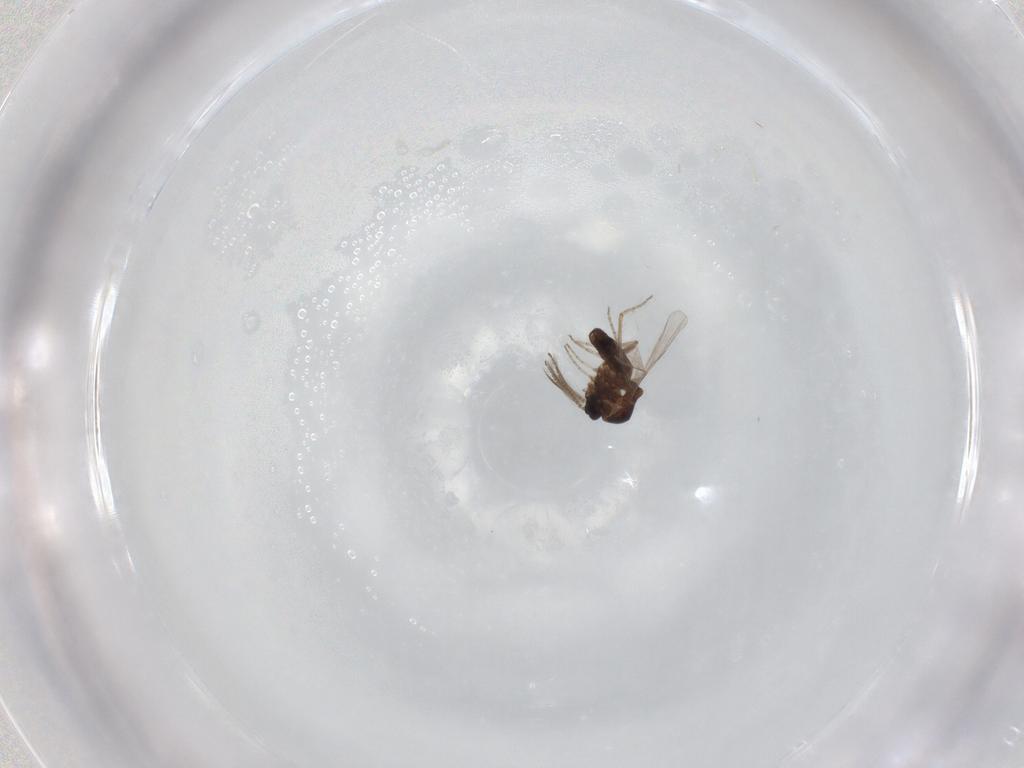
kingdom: Animalia
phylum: Arthropoda
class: Insecta
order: Diptera
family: Ceratopogonidae
